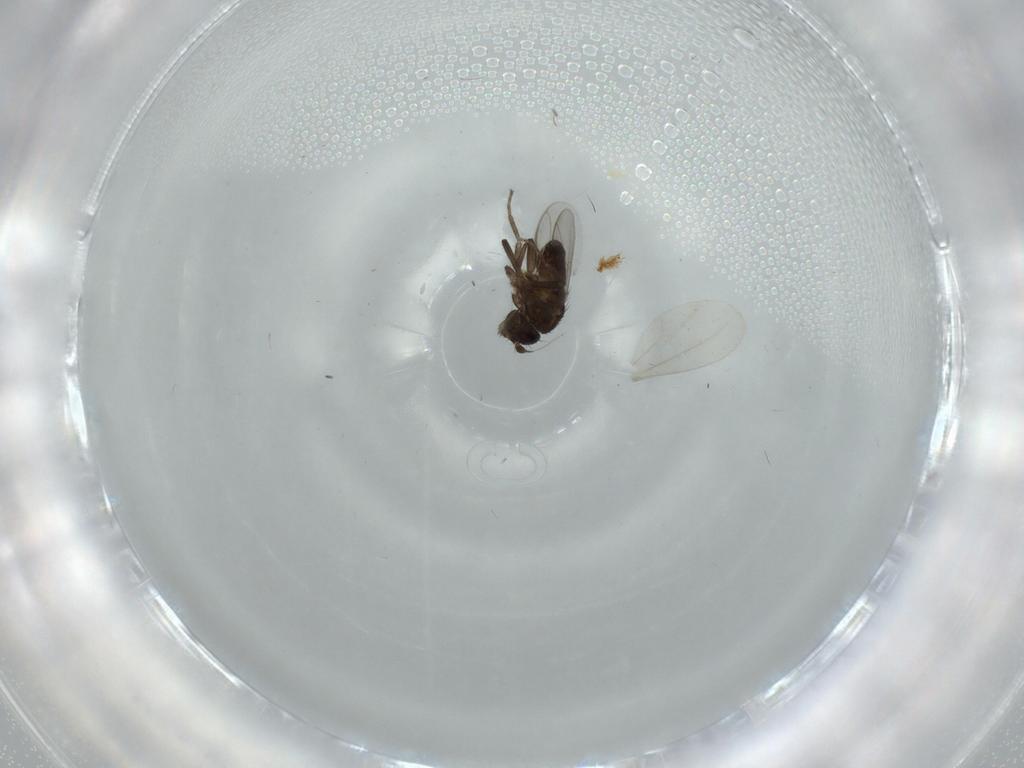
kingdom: Animalia
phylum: Arthropoda
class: Insecta
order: Diptera
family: Sphaeroceridae
